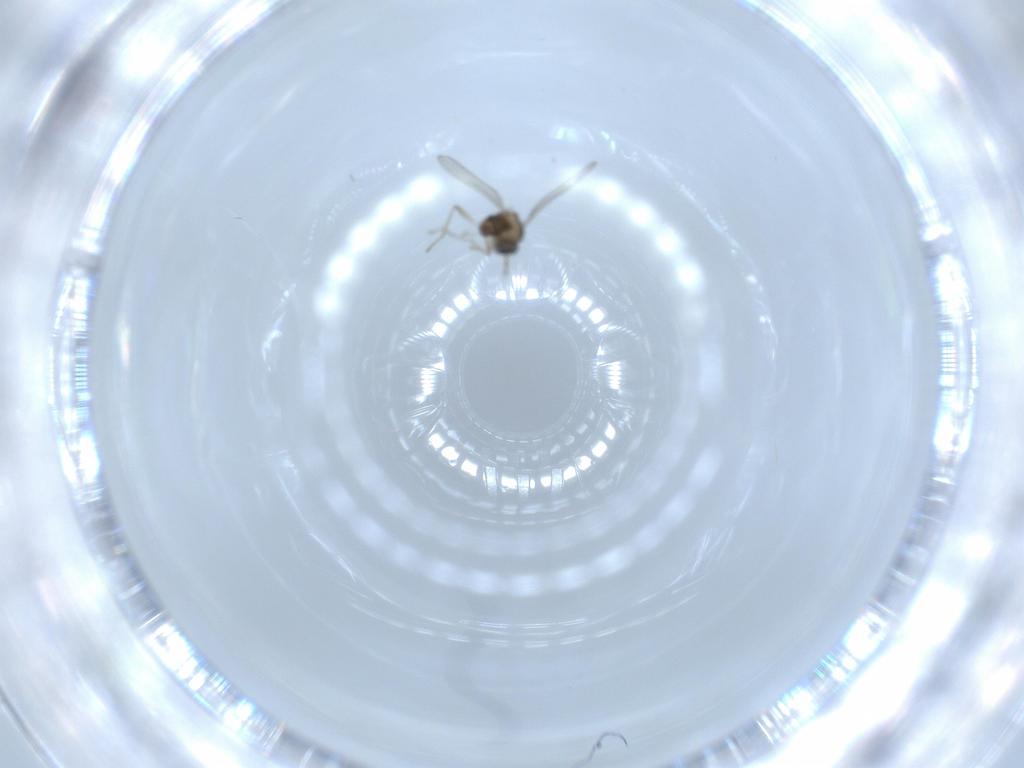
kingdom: Animalia
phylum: Arthropoda
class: Insecta
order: Diptera
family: Cecidomyiidae
